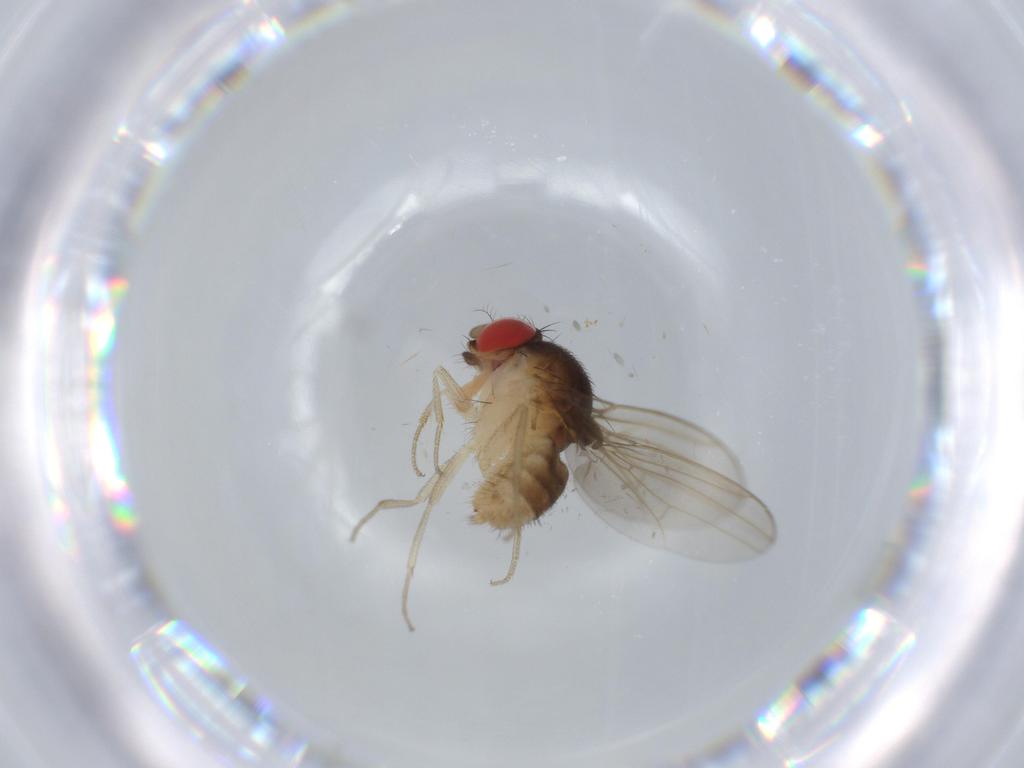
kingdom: Animalia
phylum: Arthropoda
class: Insecta
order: Diptera
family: Drosophilidae
